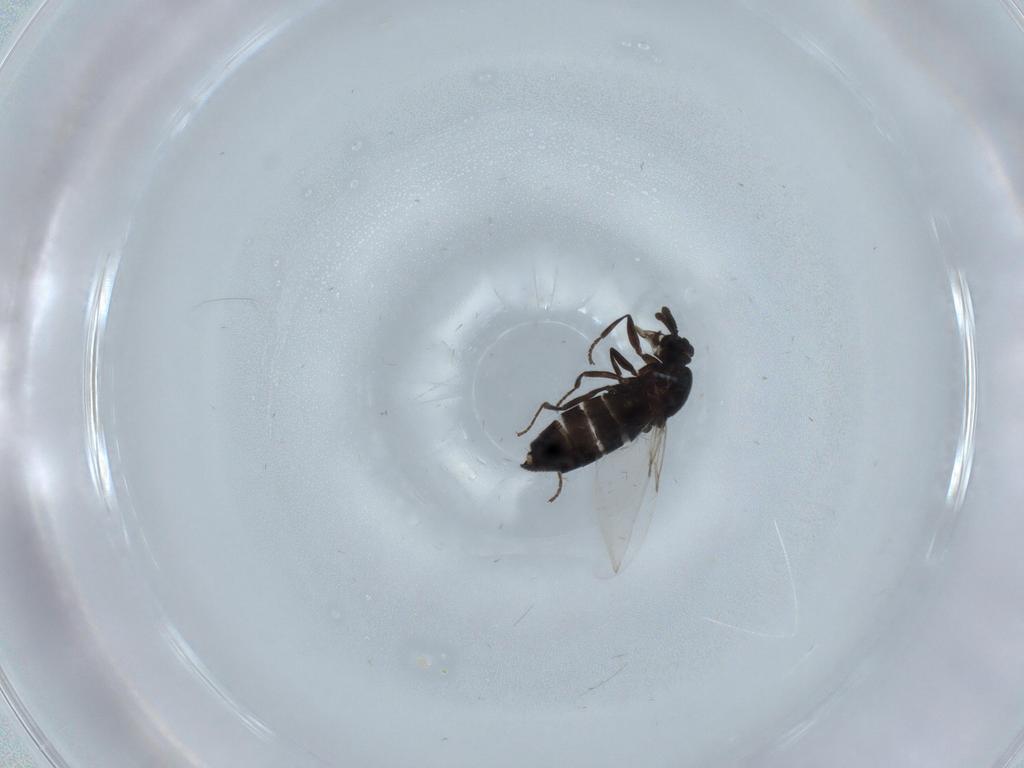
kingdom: Animalia
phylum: Arthropoda
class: Insecta
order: Diptera
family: Scatopsidae
